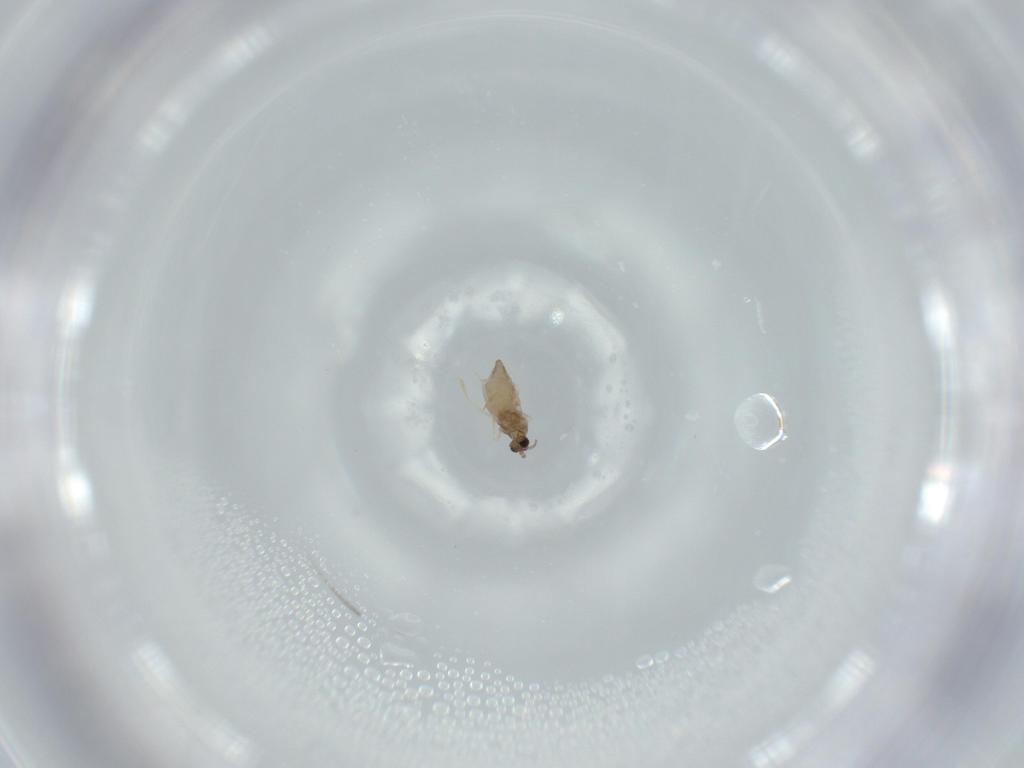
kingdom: Animalia
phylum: Arthropoda
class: Insecta
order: Diptera
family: Cecidomyiidae
